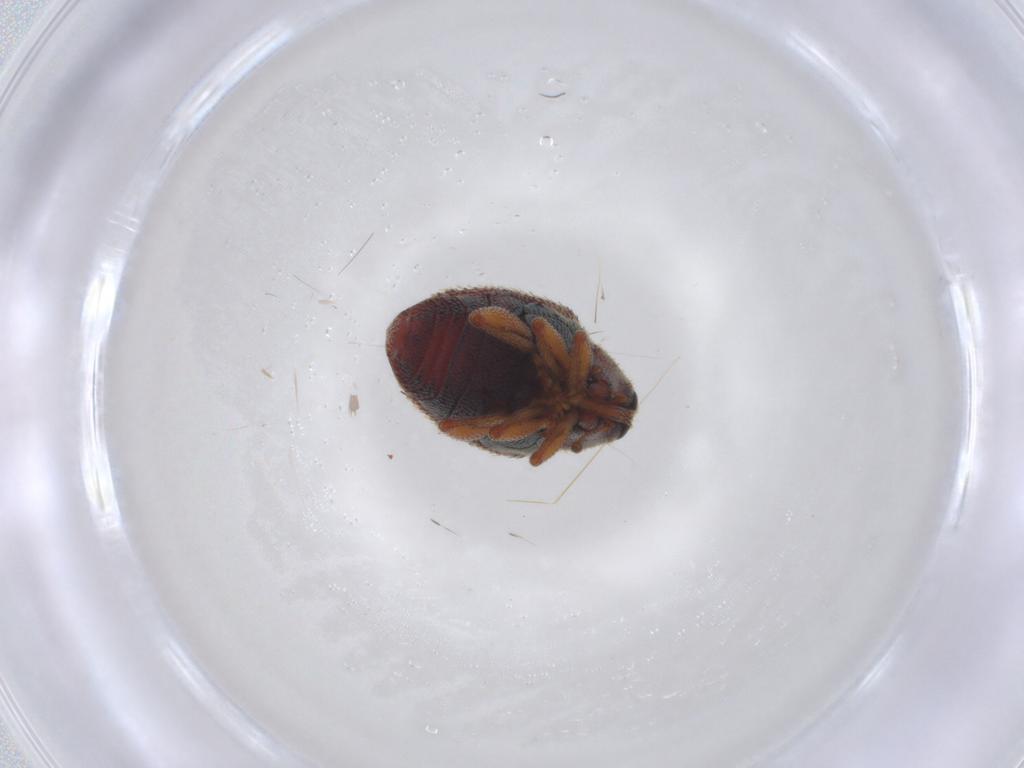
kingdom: Animalia
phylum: Arthropoda
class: Insecta
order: Coleoptera
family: Curculionidae
